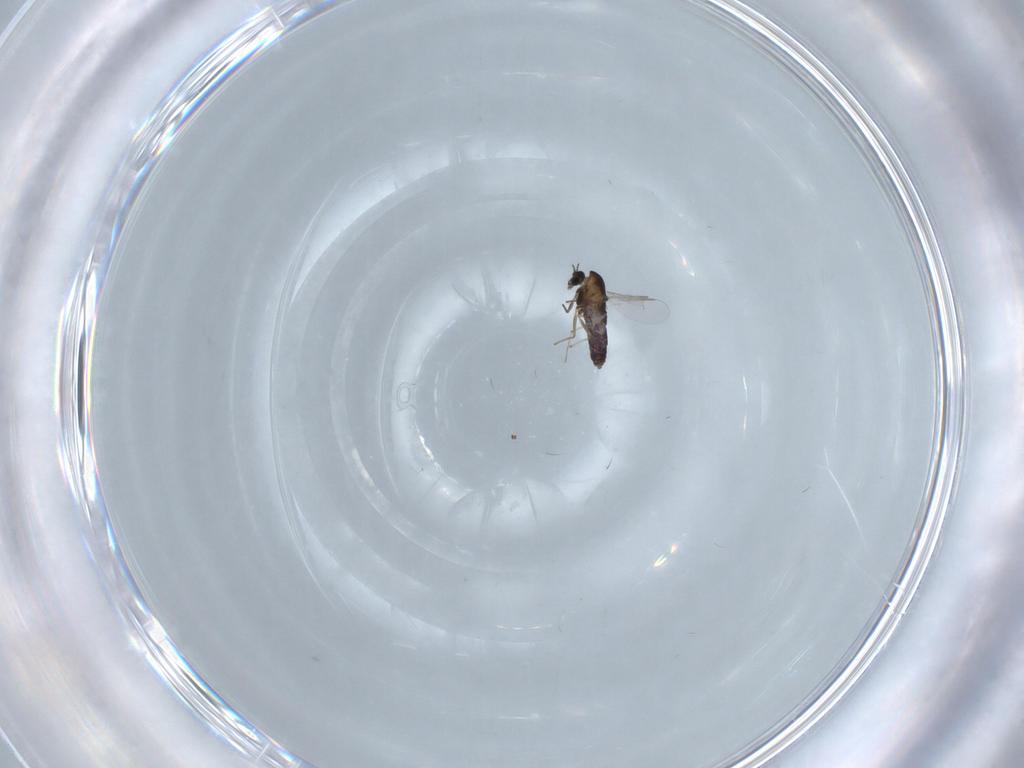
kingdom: Animalia
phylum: Arthropoda
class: Insecta
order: Diptera
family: Chironomidae
